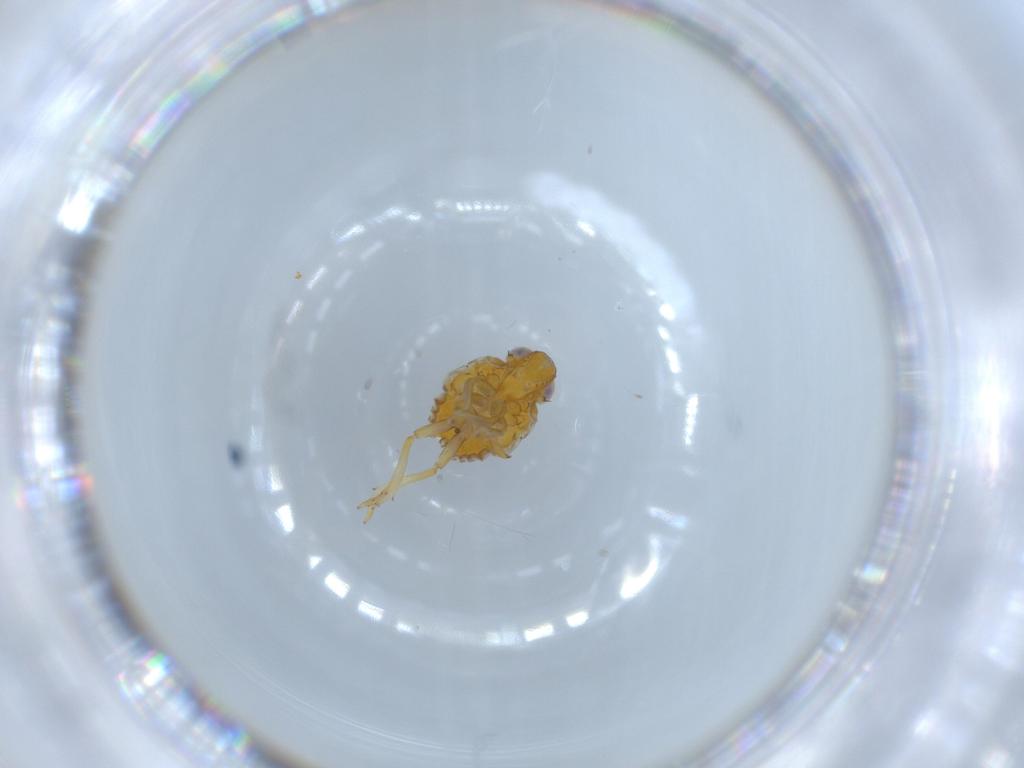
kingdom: Animalia
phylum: Arthropoda
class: Insecta
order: Hemiptera
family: Issidae
